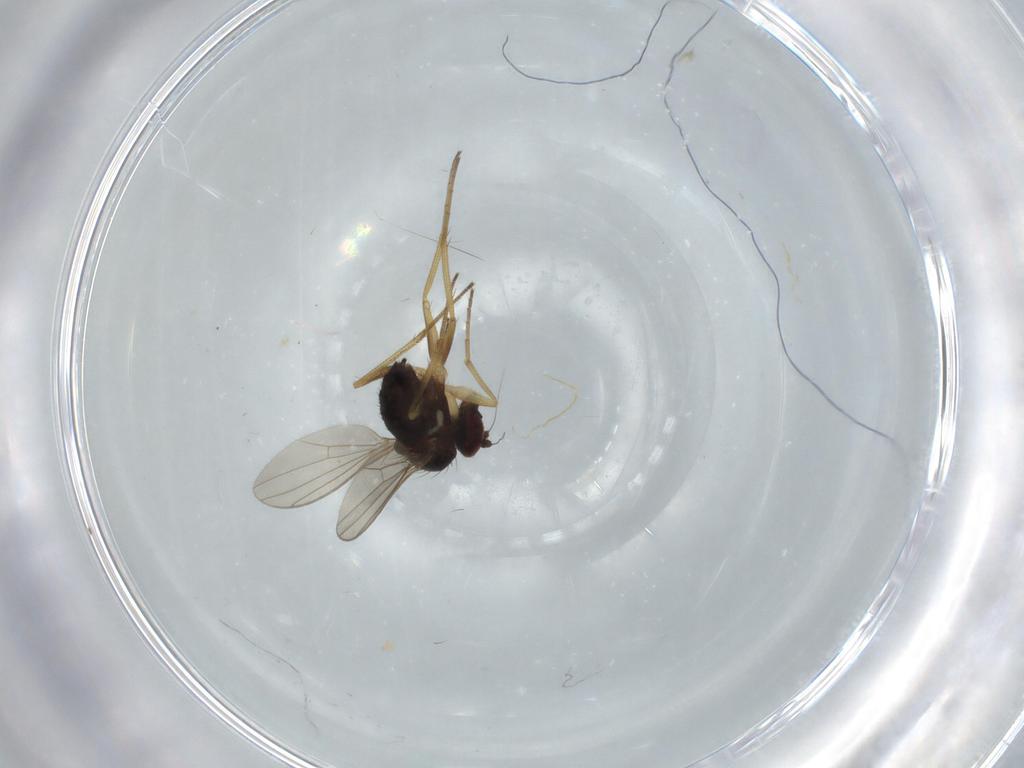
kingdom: Animalia
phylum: Arthropoda
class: Insecta
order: Diptera
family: Dolichopodidae
